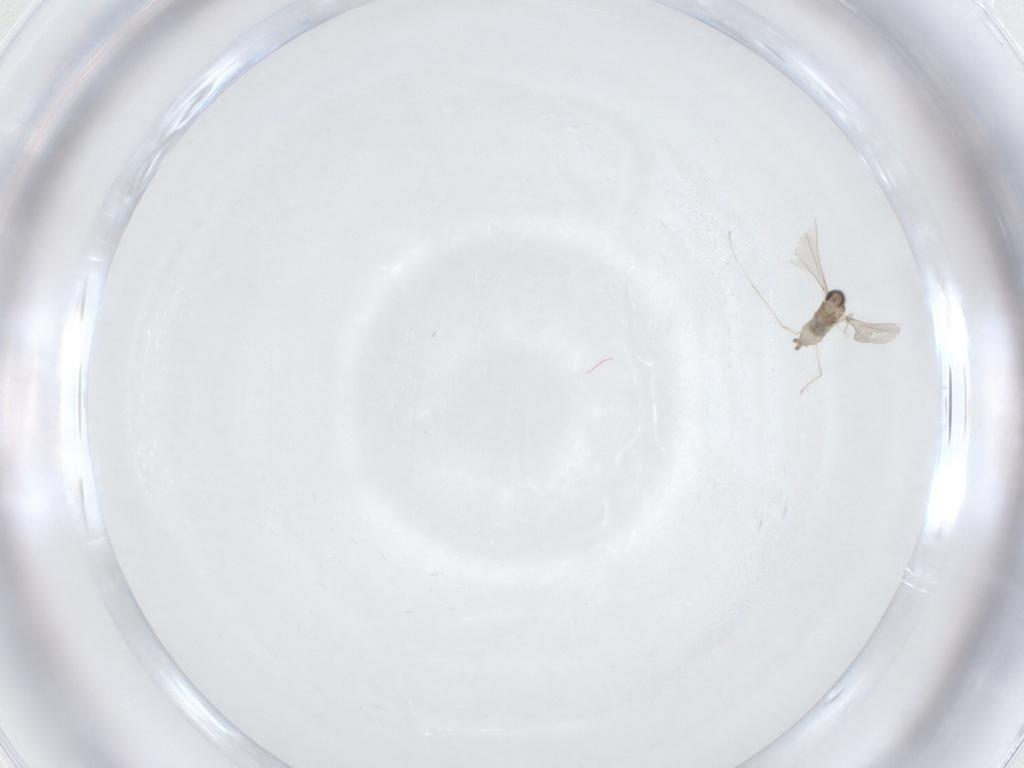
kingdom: Animalia
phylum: Arthropoda
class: Insecta
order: Diptera
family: Cecidomyiidae
